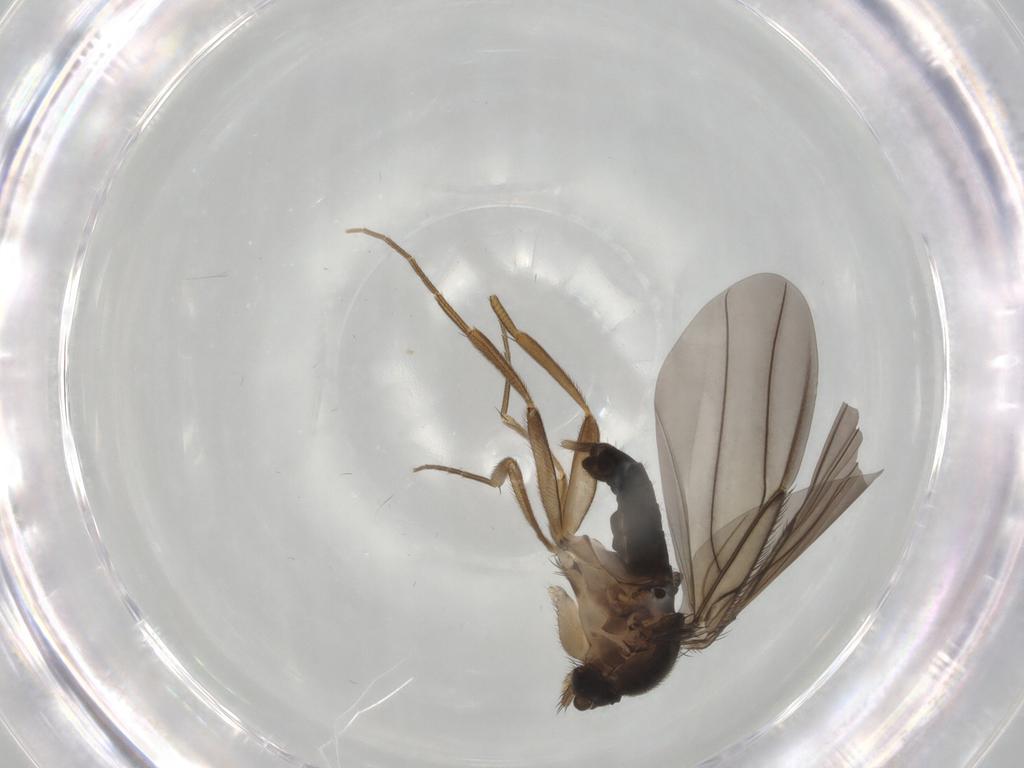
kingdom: Animalia
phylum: Arthropoda
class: Insecta
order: Diptera
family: Phoridae
